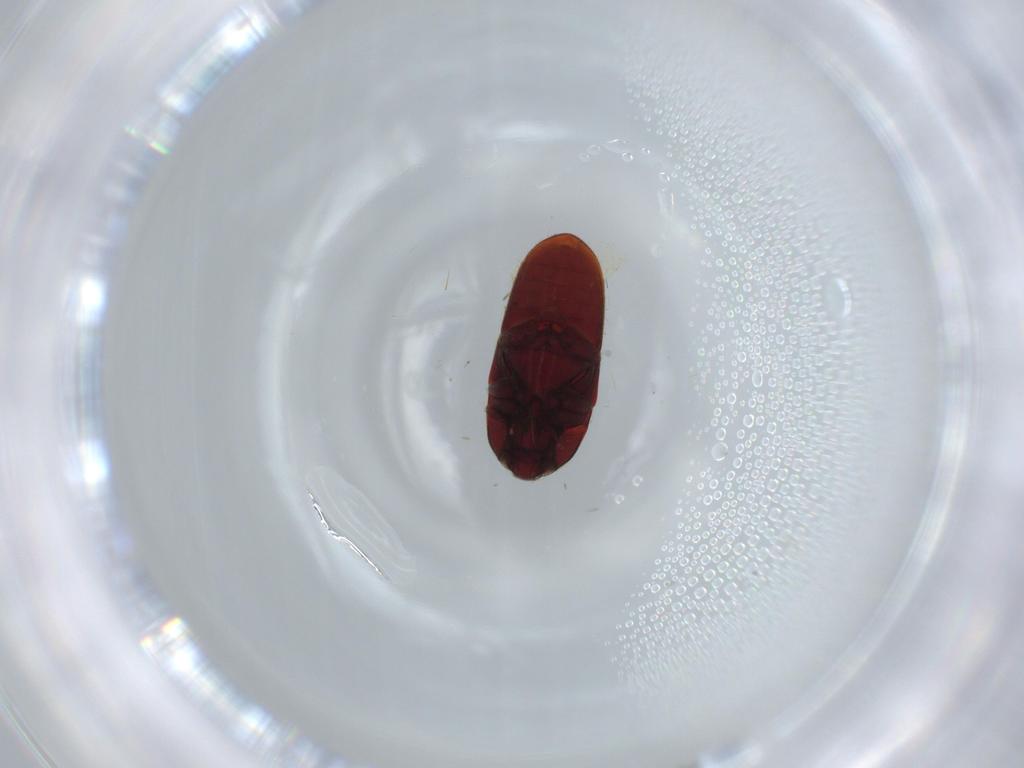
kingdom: Animalia
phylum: Arthropoda
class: Insecta
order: Coleoptera
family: Throscidae
